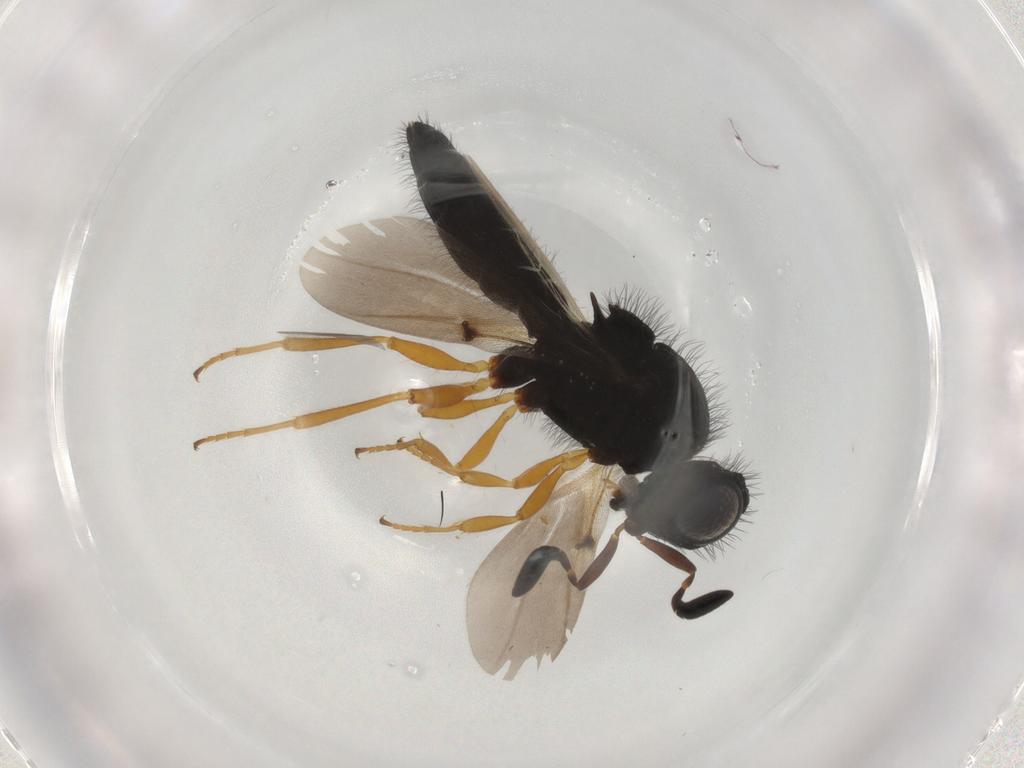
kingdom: Animalia
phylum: Arthropoda
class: Insecta
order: Hymenoptera
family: Scelionidae
